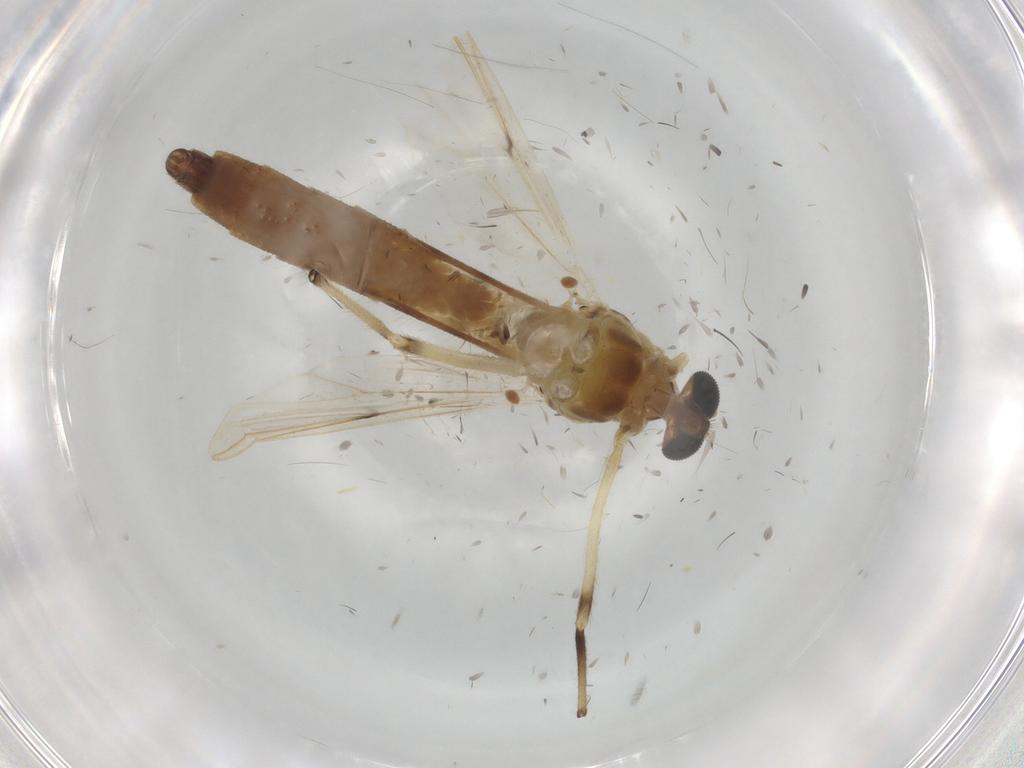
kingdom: Animalia
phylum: Arthropoda
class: Insecta
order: Diptera
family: Chironomidae
